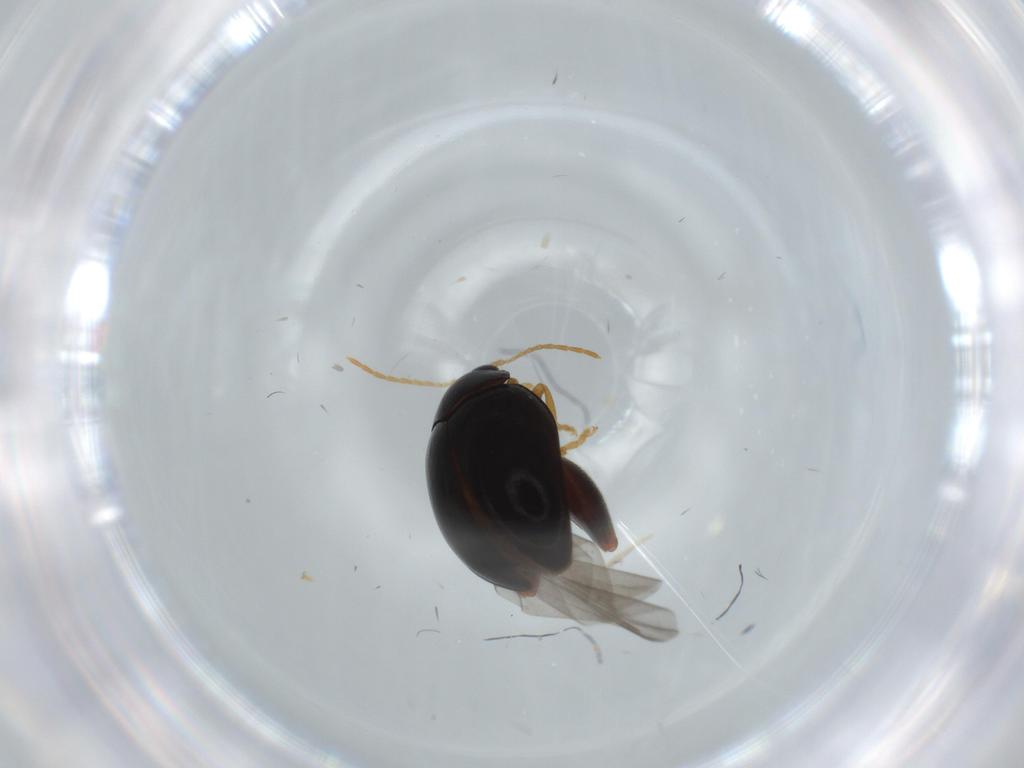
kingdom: Animalia
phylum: Arthropoda
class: Insecta
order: Coleoptera
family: Chrysomelidae
